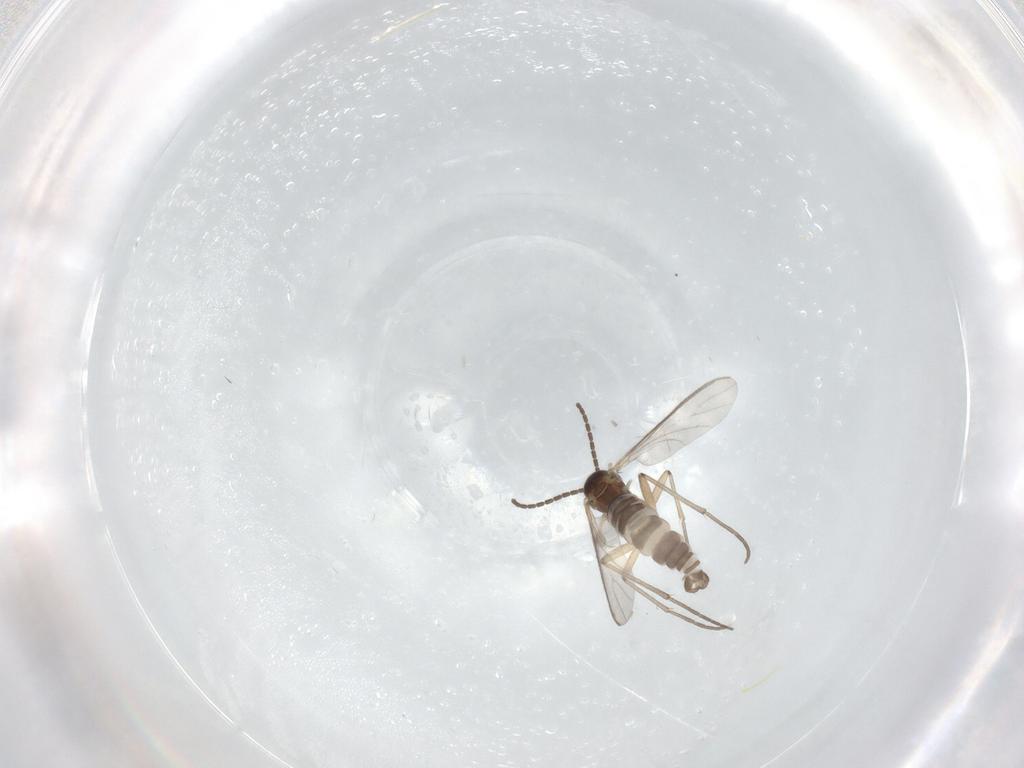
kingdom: Animalia
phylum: Arthropoda
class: Insecta
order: Diptera
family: Sciaridae
